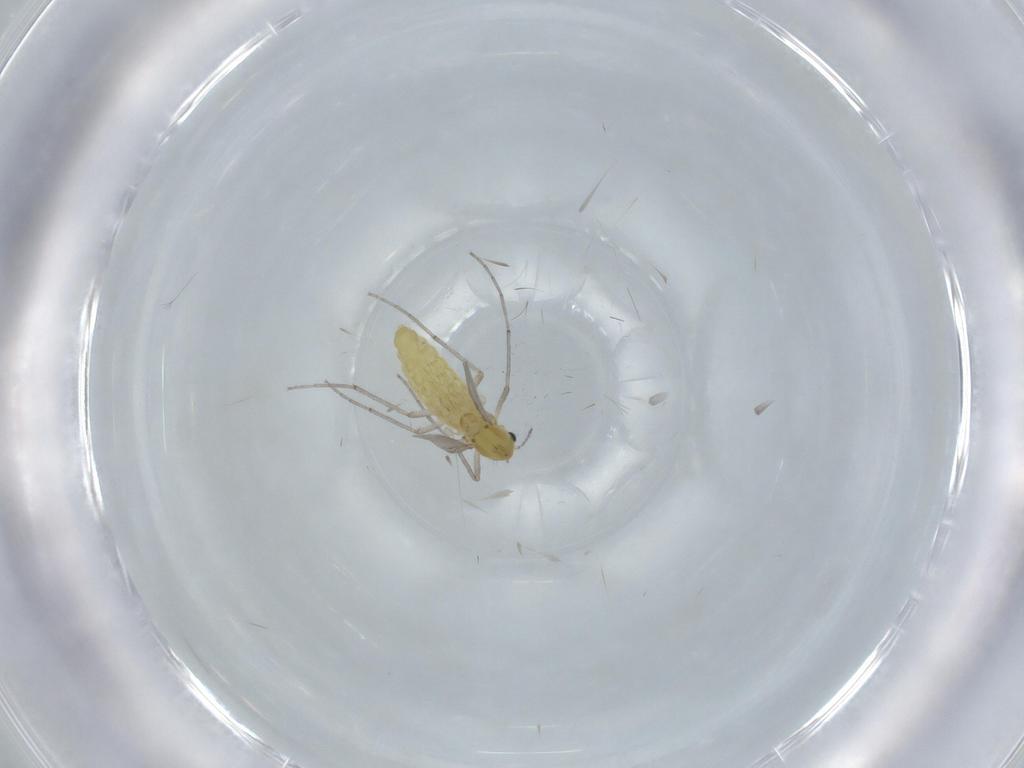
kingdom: Animalia
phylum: Arthropoda
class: Insecta
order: Diptera
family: Chironomidae
